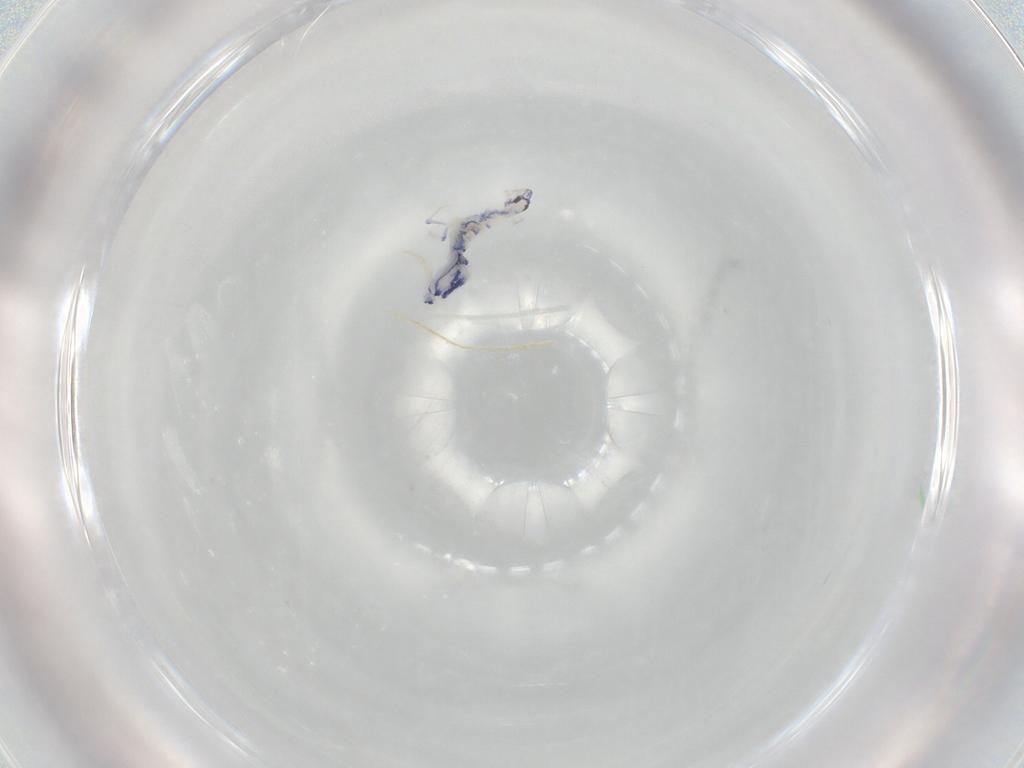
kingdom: Animalia
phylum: Arthropoda
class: Collembola
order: Entomobryomorpha
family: Entomobryidae
